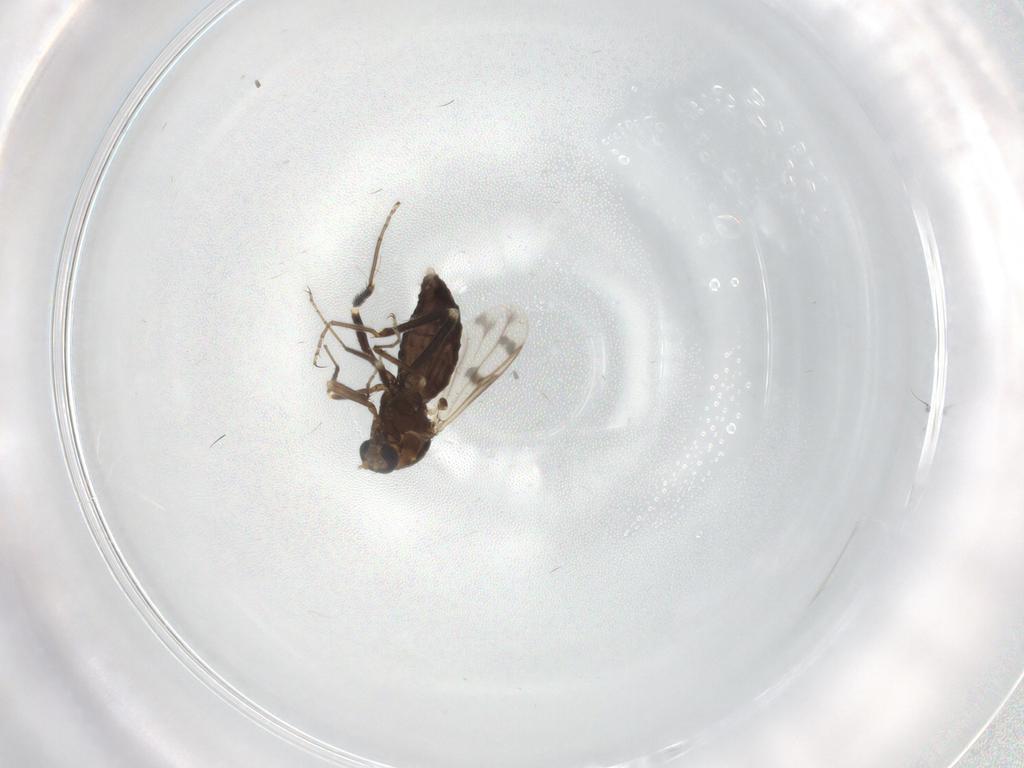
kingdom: Animalia
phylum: Arthropoda
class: Insecta
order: Diptera
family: Ceratopogonidae
